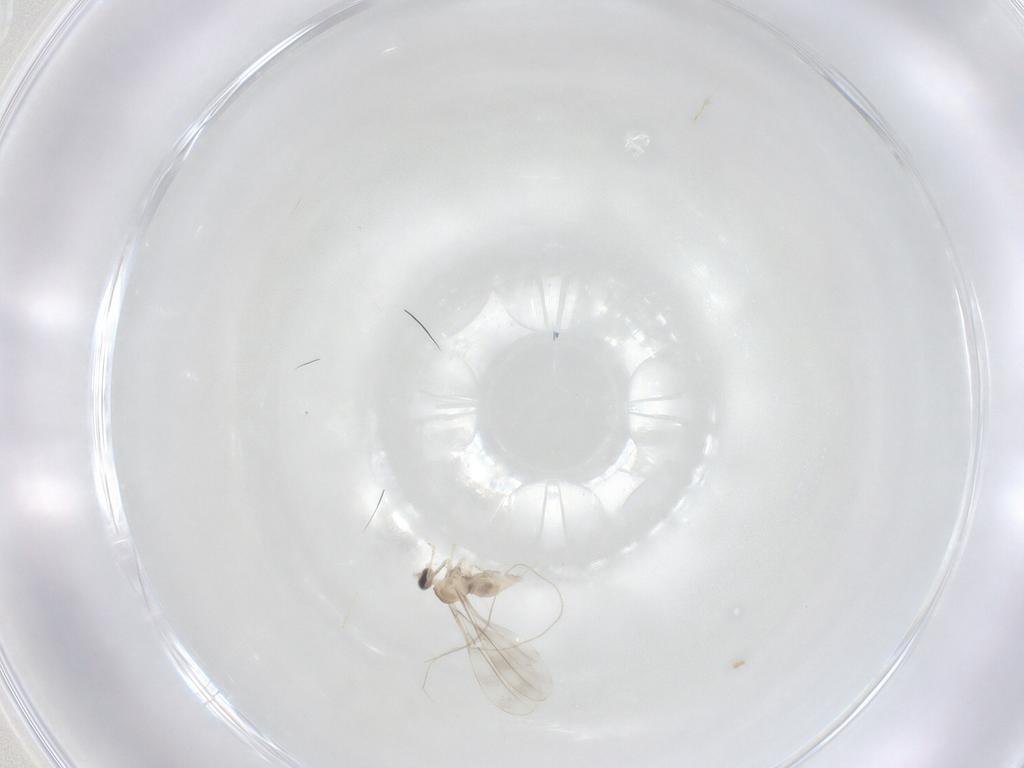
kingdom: Animalia
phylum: Arthropoda
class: Insecta
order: Diptera
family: Cecidomyiidae
